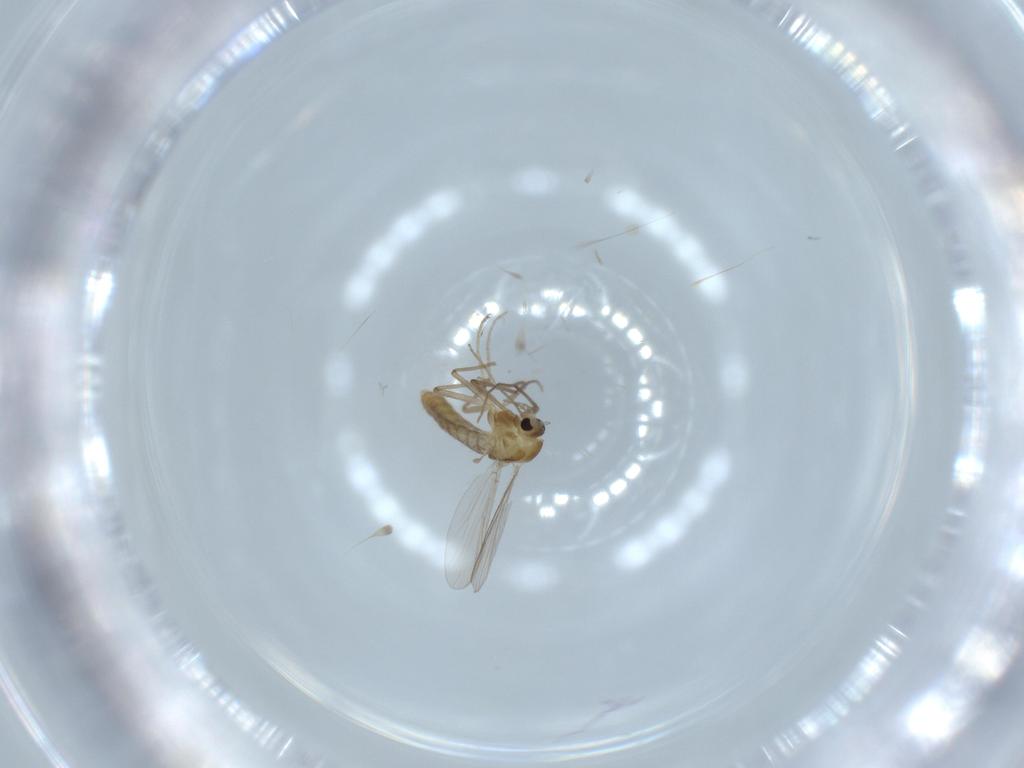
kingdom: Animalia
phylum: Arthropoda
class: Insecta
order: Diptera
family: Chironomidae
